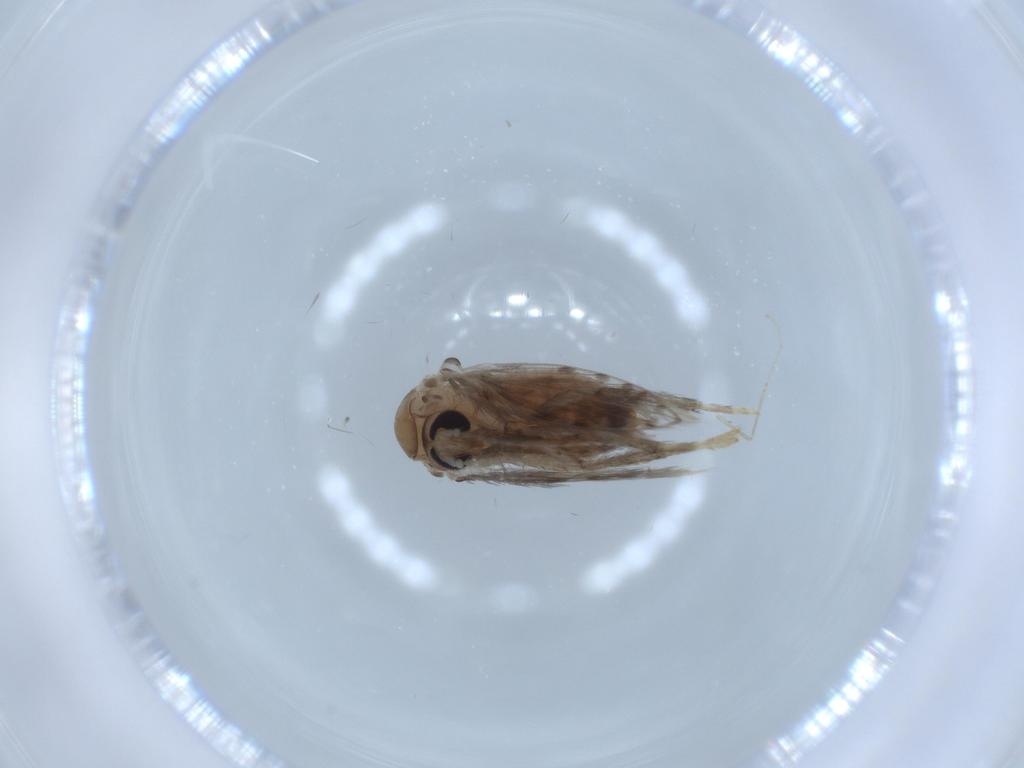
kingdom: Animalia
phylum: Arthropoda
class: Insecta
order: Diptera
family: Psychodidae
